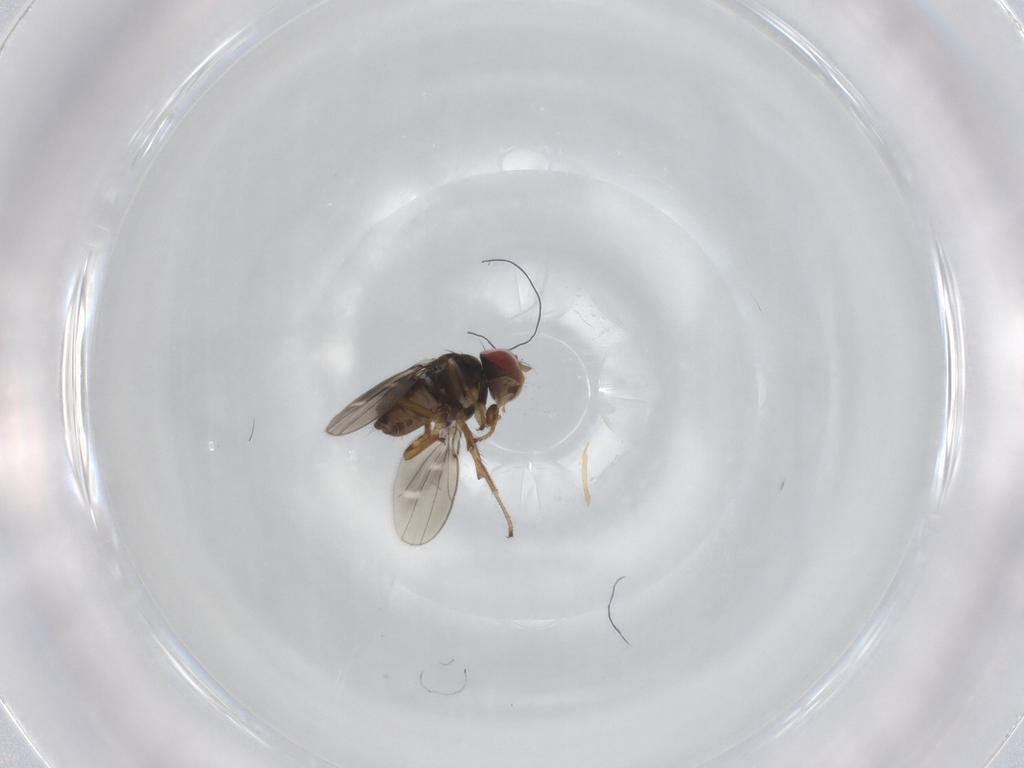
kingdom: Animalia
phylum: Arthropoda
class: Insecta
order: Diptera
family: Ephydridae
